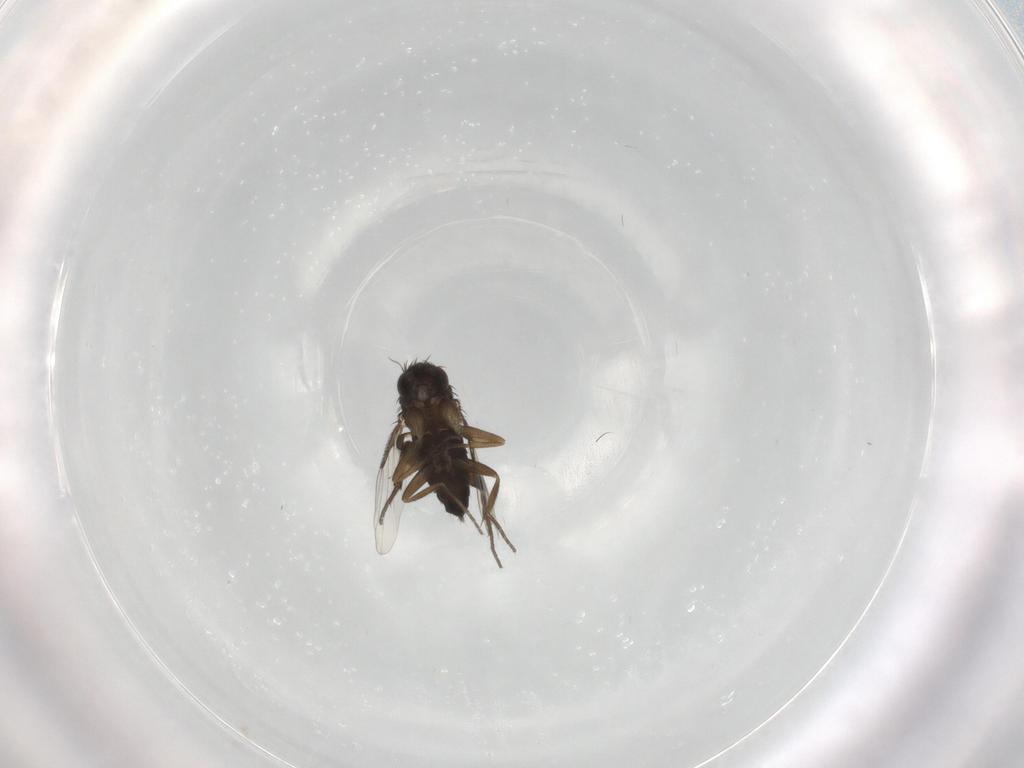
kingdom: Animalia
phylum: Arthropoda
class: Insecta
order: Diptera
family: Phoridae
